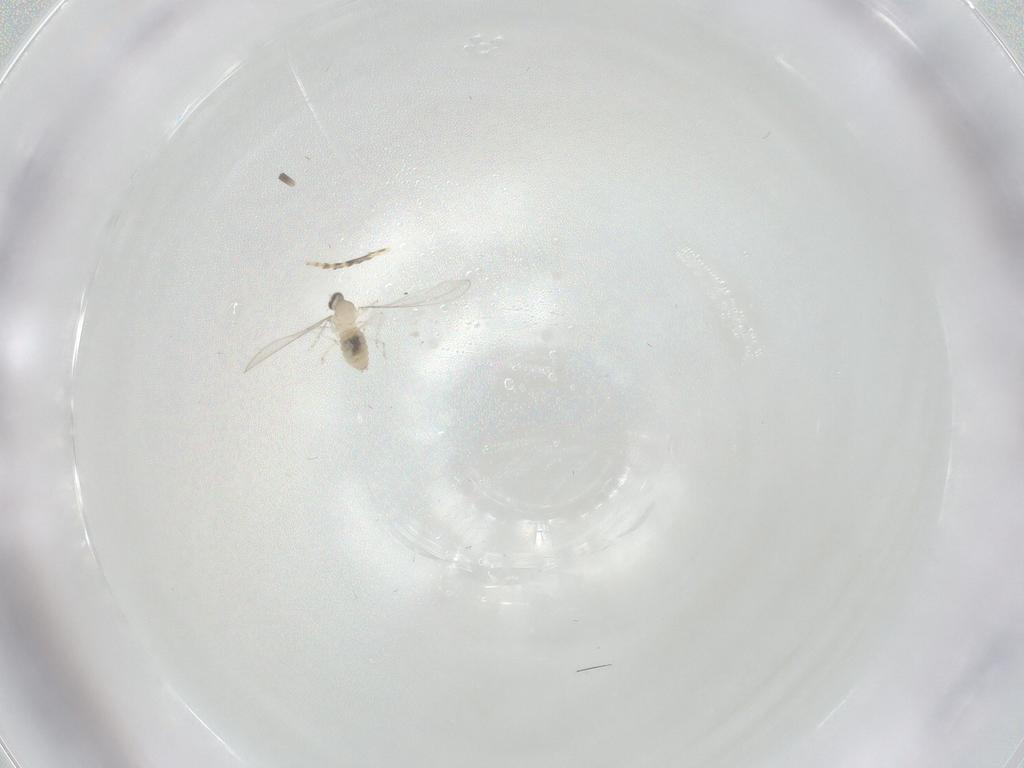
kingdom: Animalia
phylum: Arthropoda
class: Insecta
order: Diptera
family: Cecidomyiidae
